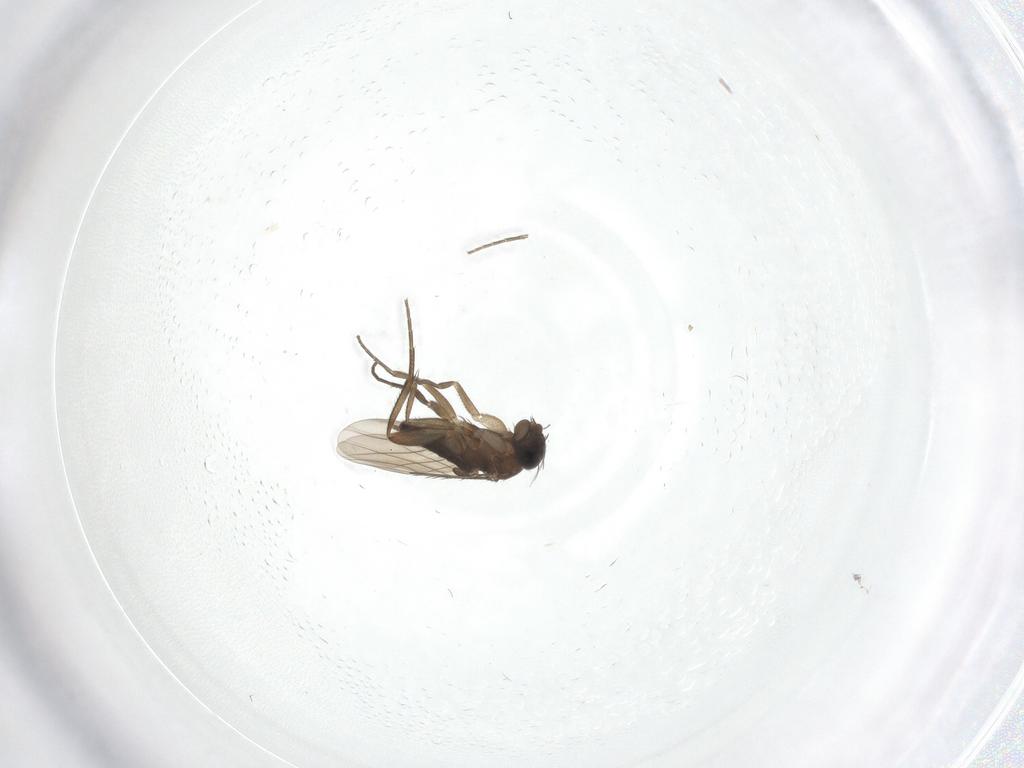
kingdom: Animalia
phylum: Arthropoda
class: Insecta
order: Diptera
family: Phoridae
